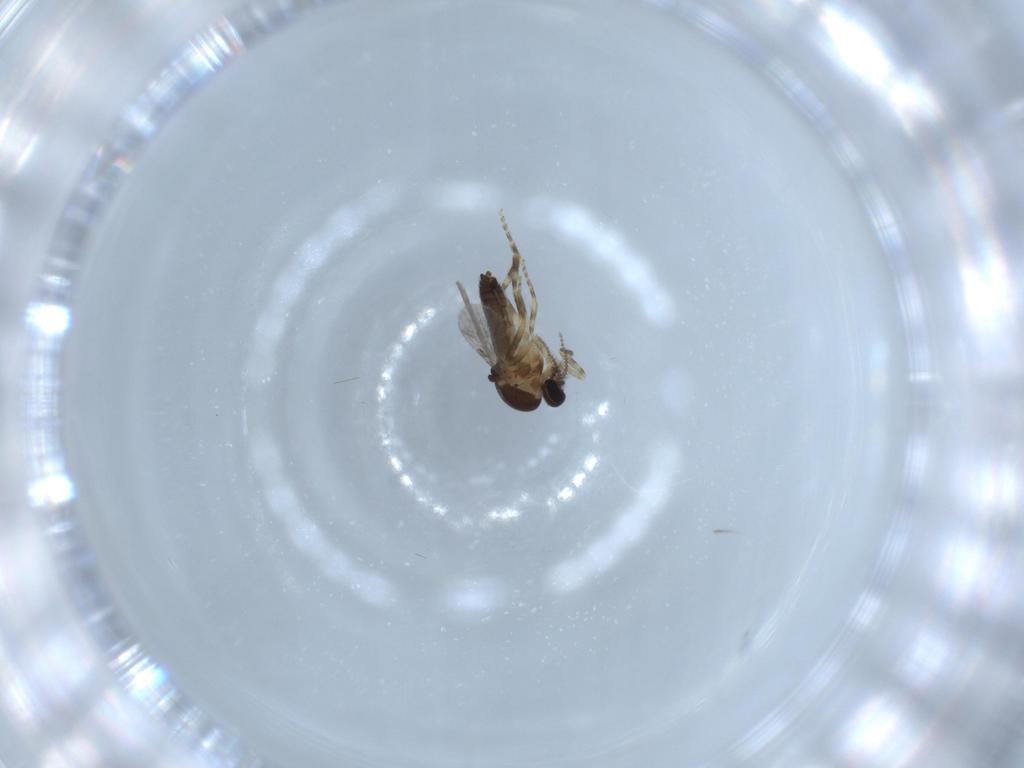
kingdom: Animalia
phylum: Arthropoda
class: Insecta
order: Diptera
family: Ceratopogonidae
